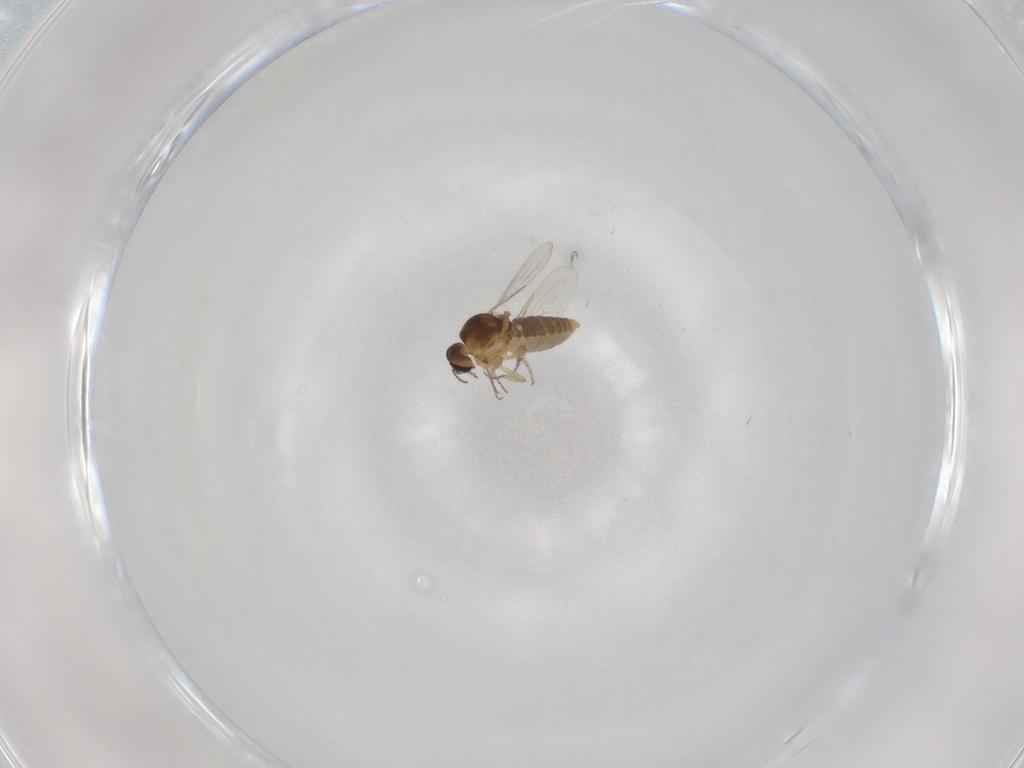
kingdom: Animalia
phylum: Arthropoda
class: Insecta
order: Diptera
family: Ceratopogonidae
